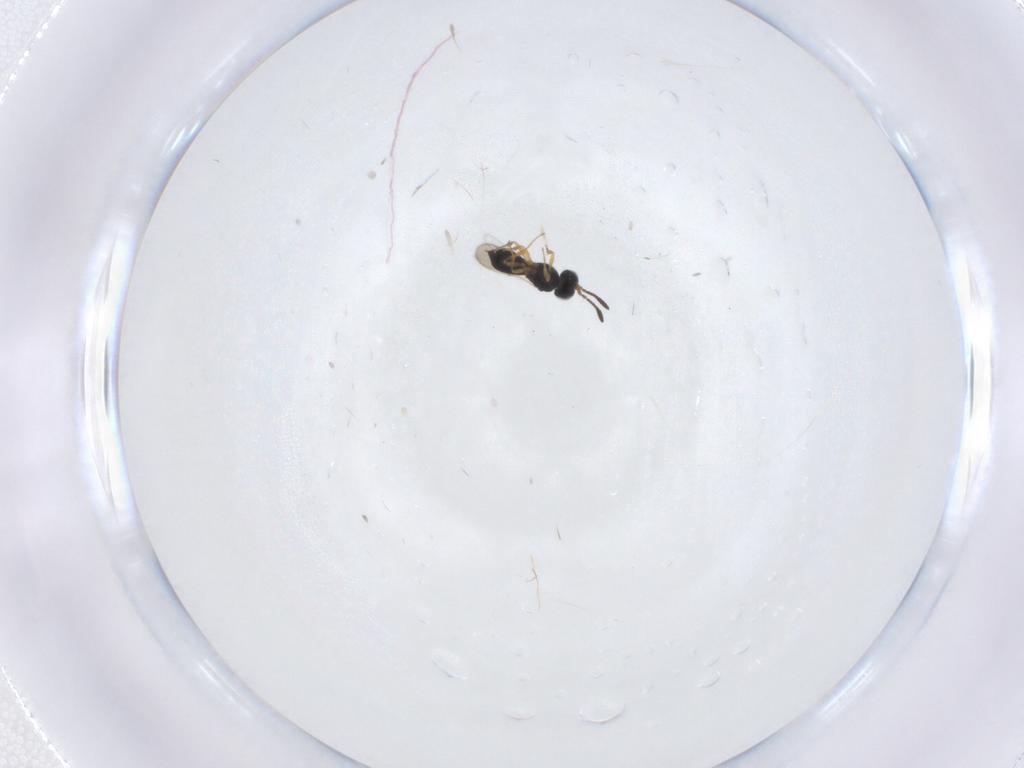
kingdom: Animalia
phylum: Arthropoda
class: Insecta
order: Hymenoptera
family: Scelionidae
